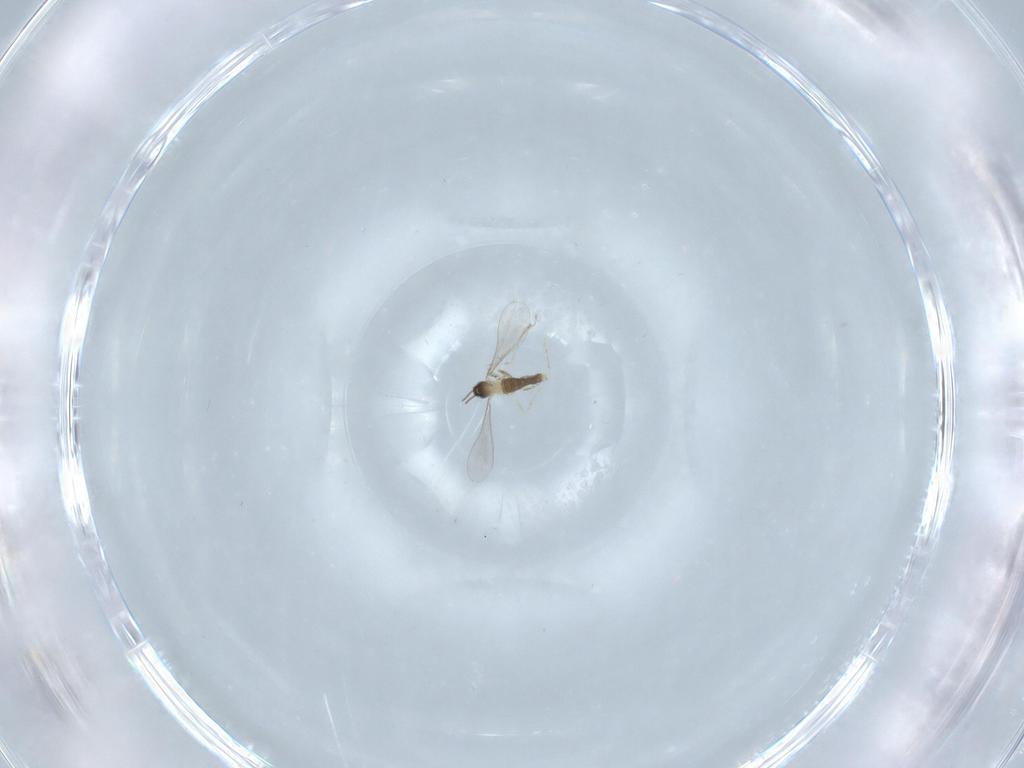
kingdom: Animalia
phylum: Arthropoda
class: Insecta
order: Diptera
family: Cecidomyiidae
